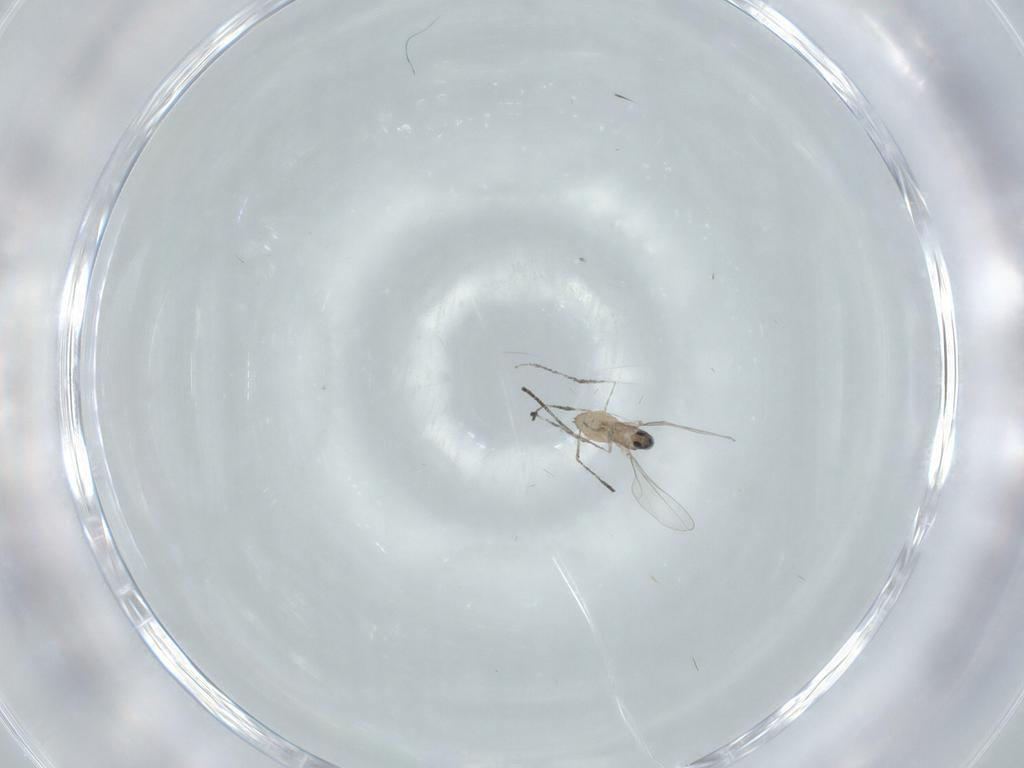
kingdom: Animalia
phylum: Arthropoda
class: Insecta
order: Diptera
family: Cecidomyiidae
